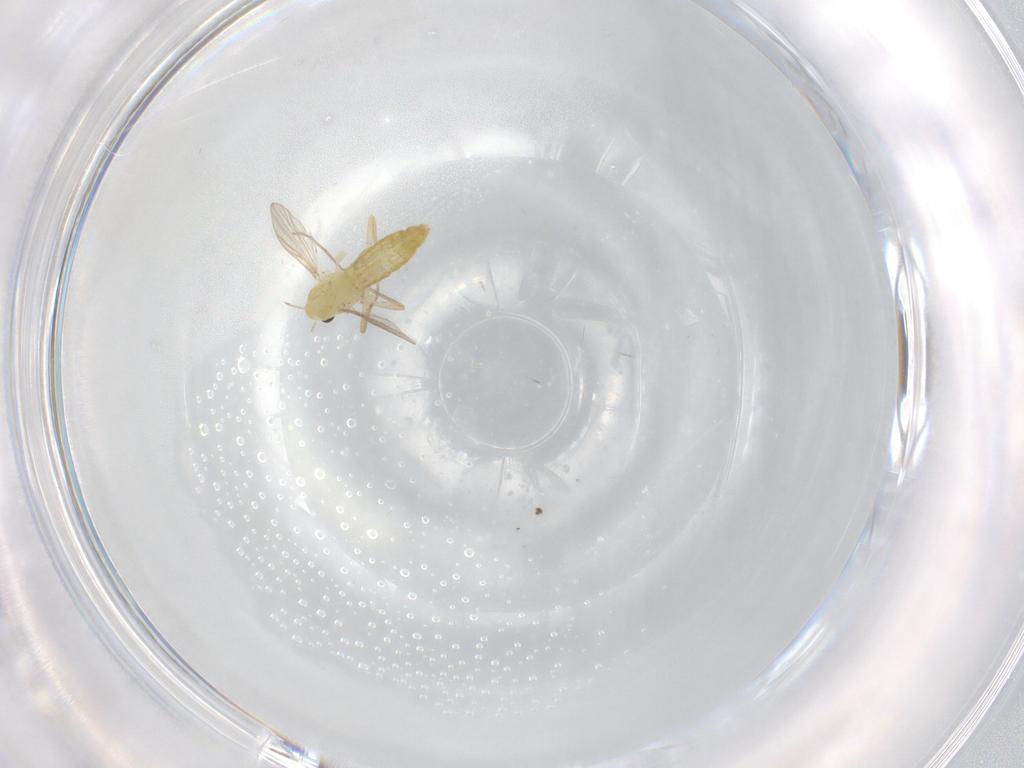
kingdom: Animalia
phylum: Arthropoda
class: Insecta
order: Diptera
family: Chironomidae
